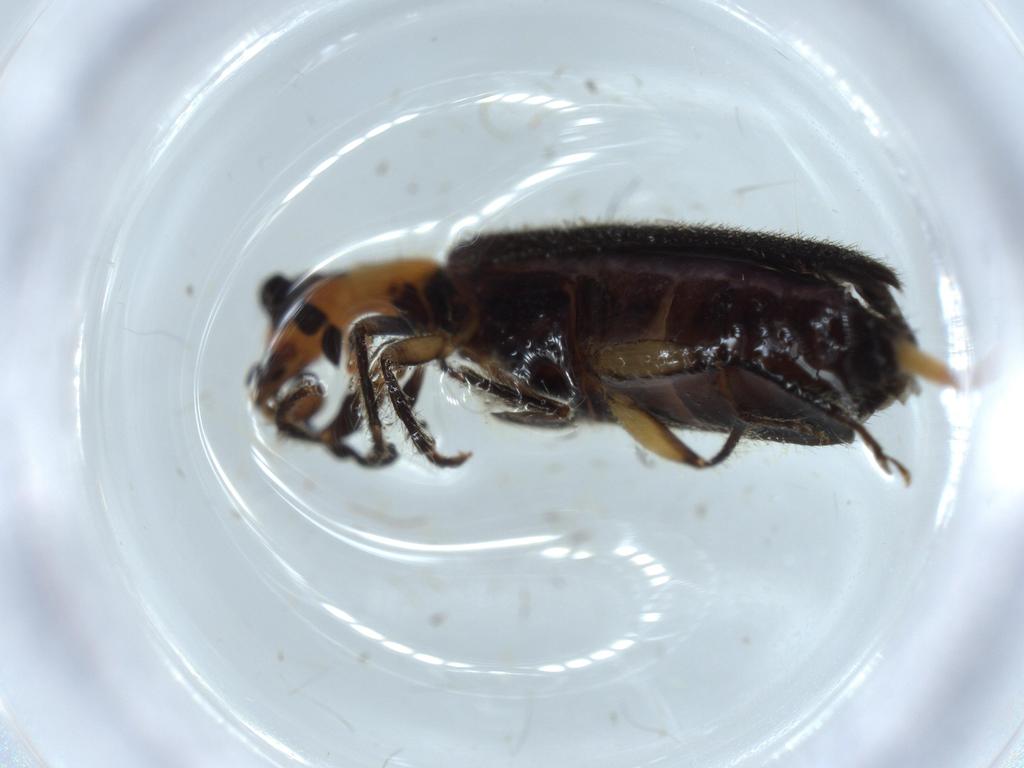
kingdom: Animalia
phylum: Arthropoda
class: Insecta
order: Coleoptera
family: Cleridae
